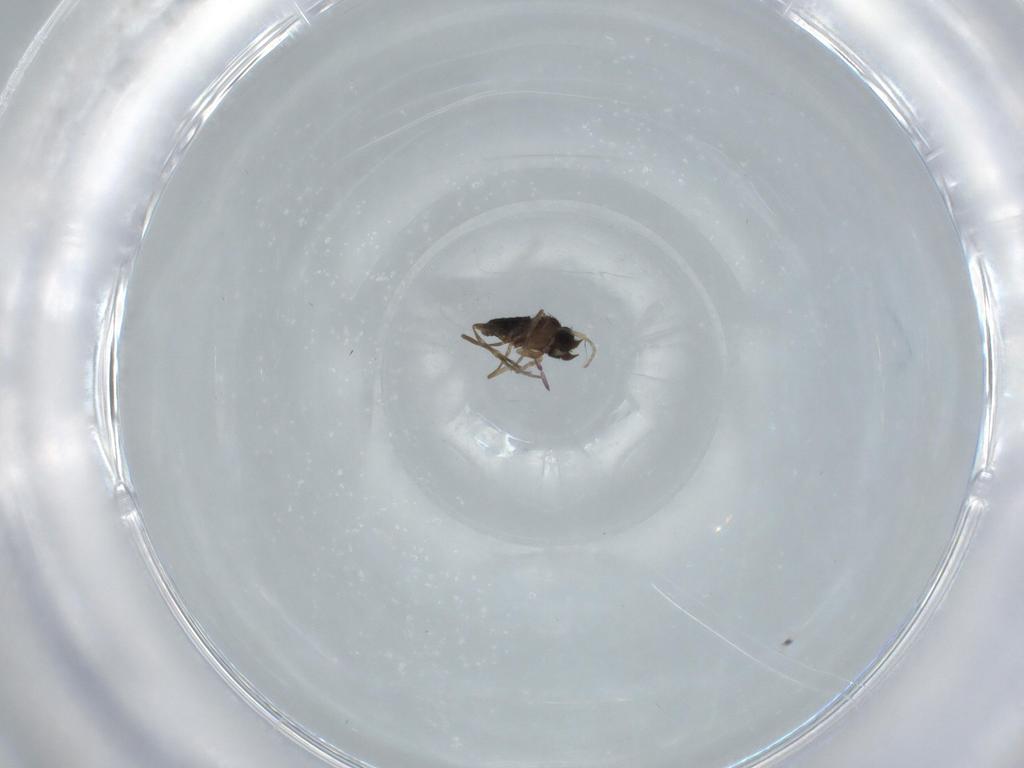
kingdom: Animalia
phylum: Arthropoda
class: Insecta
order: Diptera
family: Phoridae
